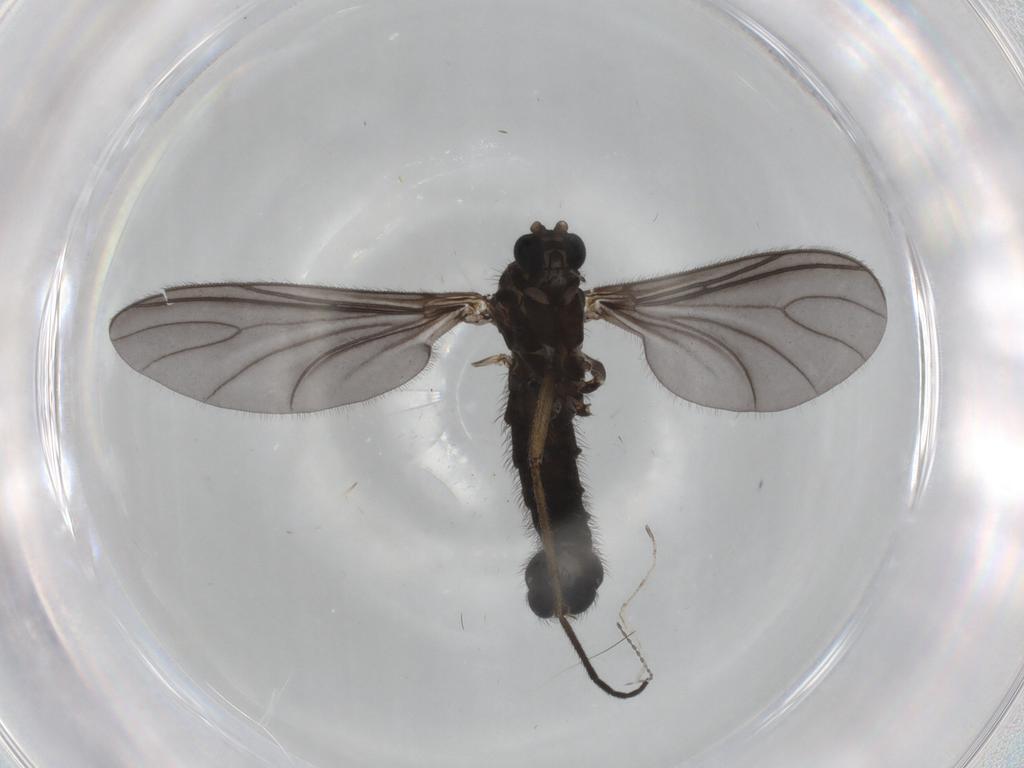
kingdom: Animalia
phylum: Arthropoda
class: Insecta
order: Diptera
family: Sciaridae
